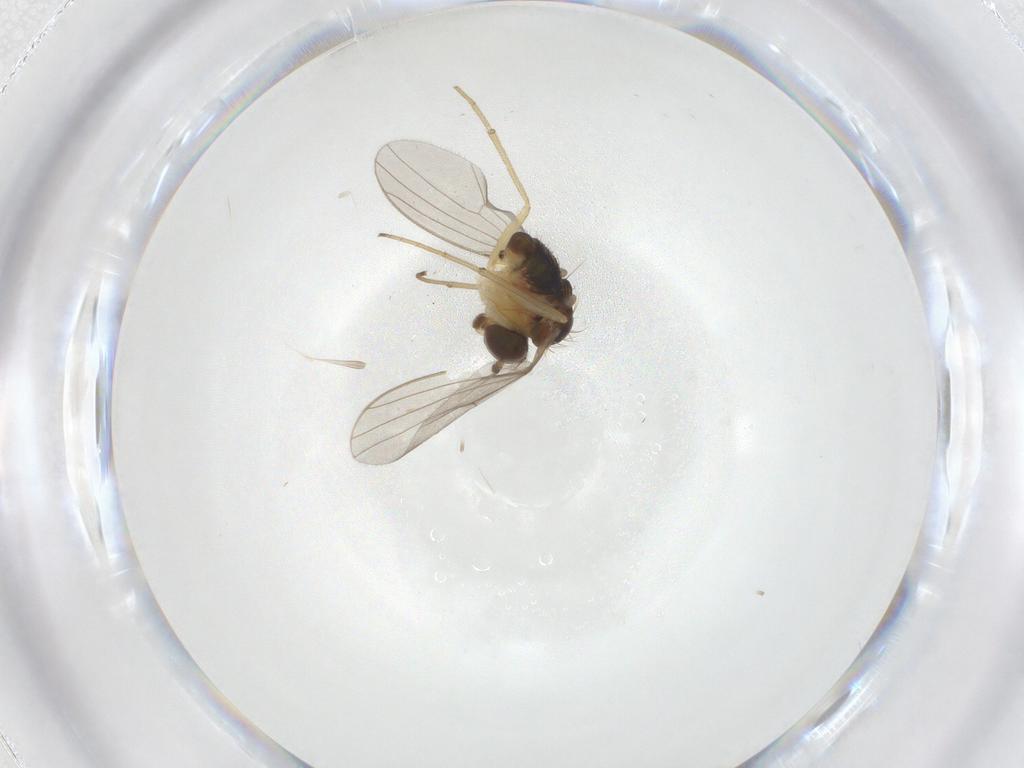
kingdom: Animalia
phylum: Arthropoda
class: Insecta
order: Diptera
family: Dolichopodidae
